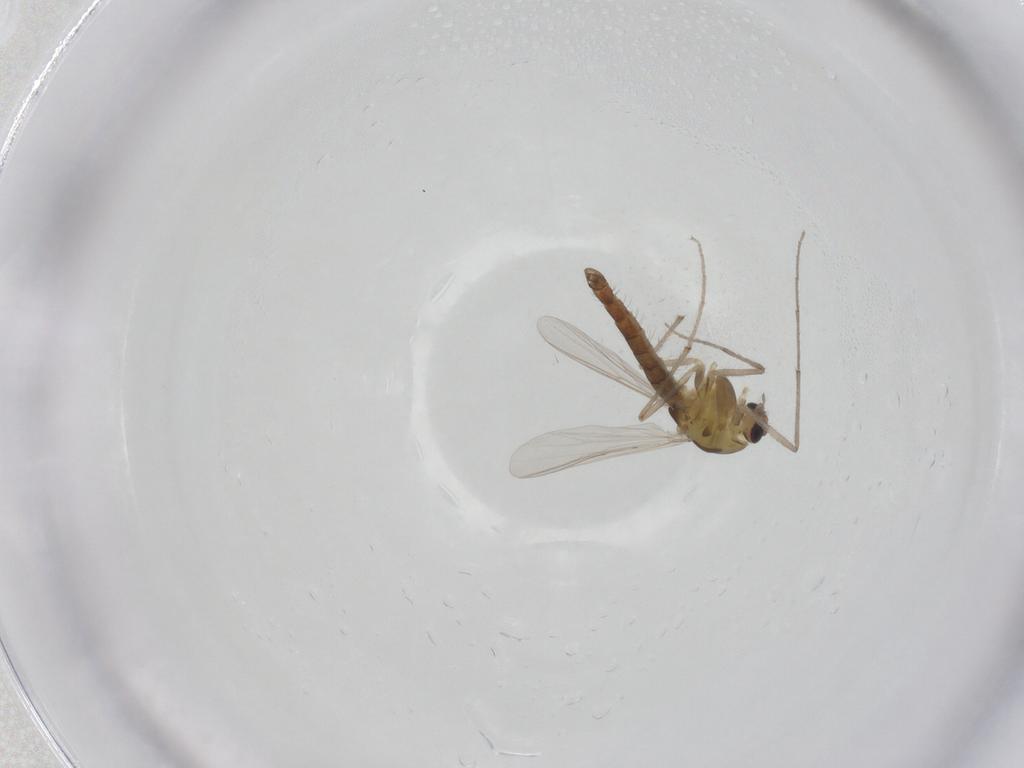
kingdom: Animalia
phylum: Arthropoda
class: Insecta
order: Diptera
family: Chironomidae
